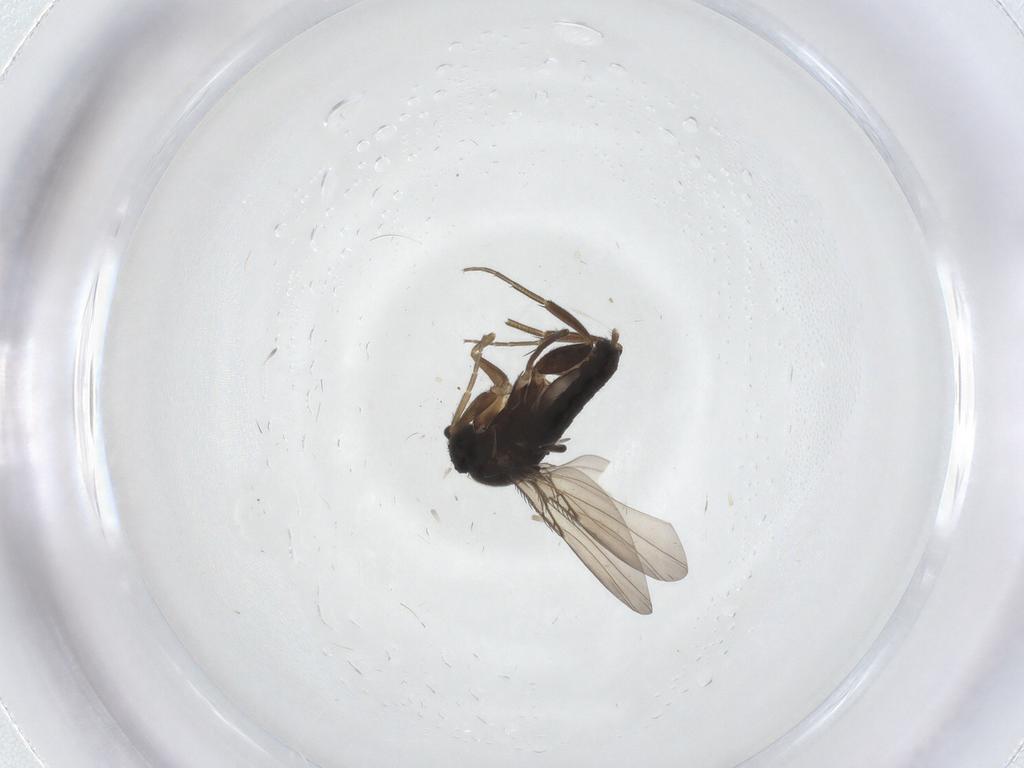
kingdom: Animalia
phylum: Arthropoda
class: Insecta
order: Diptera
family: Phoridae
